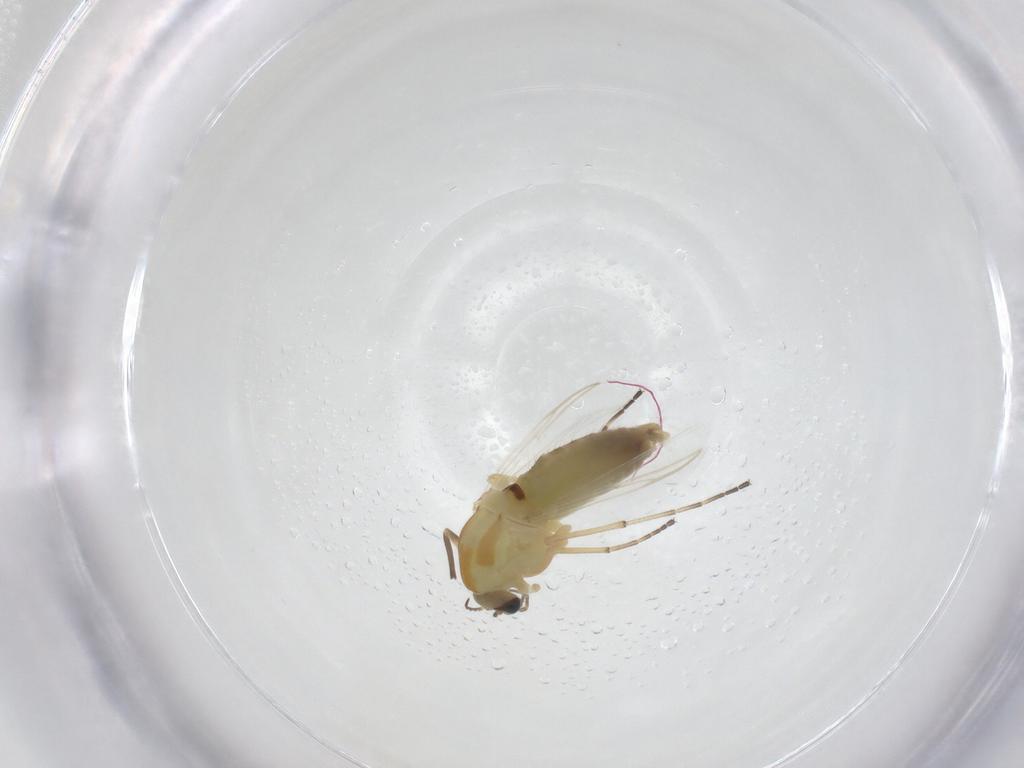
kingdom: Animalia
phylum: Arthropoda
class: Insecta
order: Diptera
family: Chironomidae
